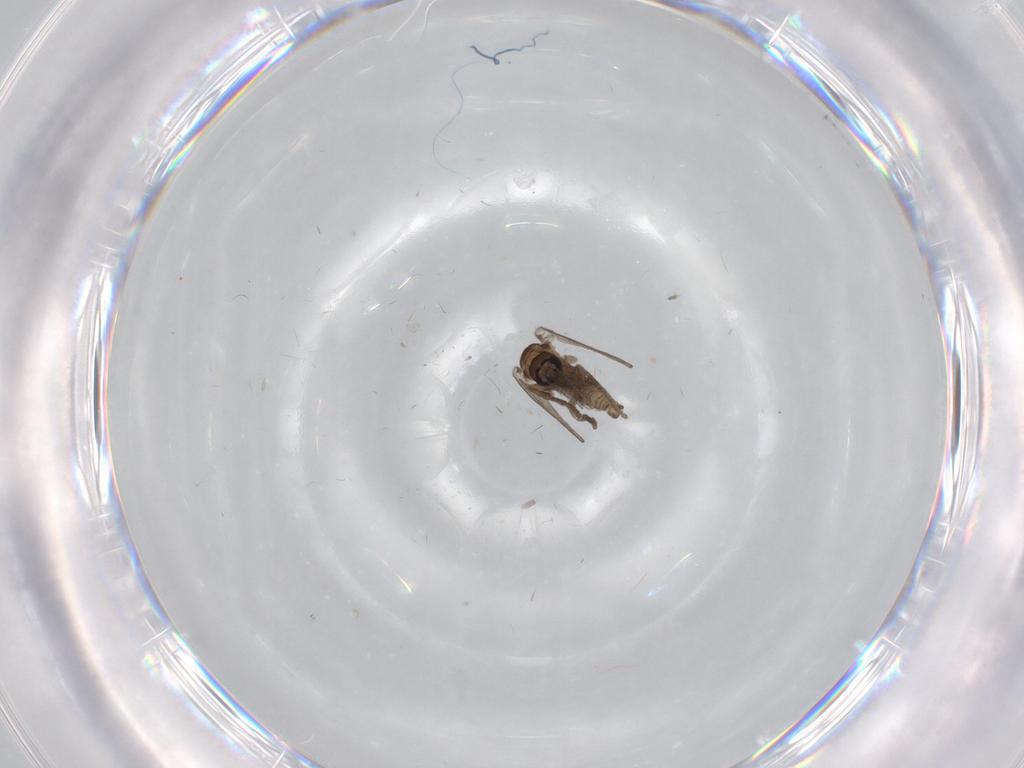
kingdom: Animalia
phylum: Arthropoda
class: Insecta
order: Diptera
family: Psychodidae
